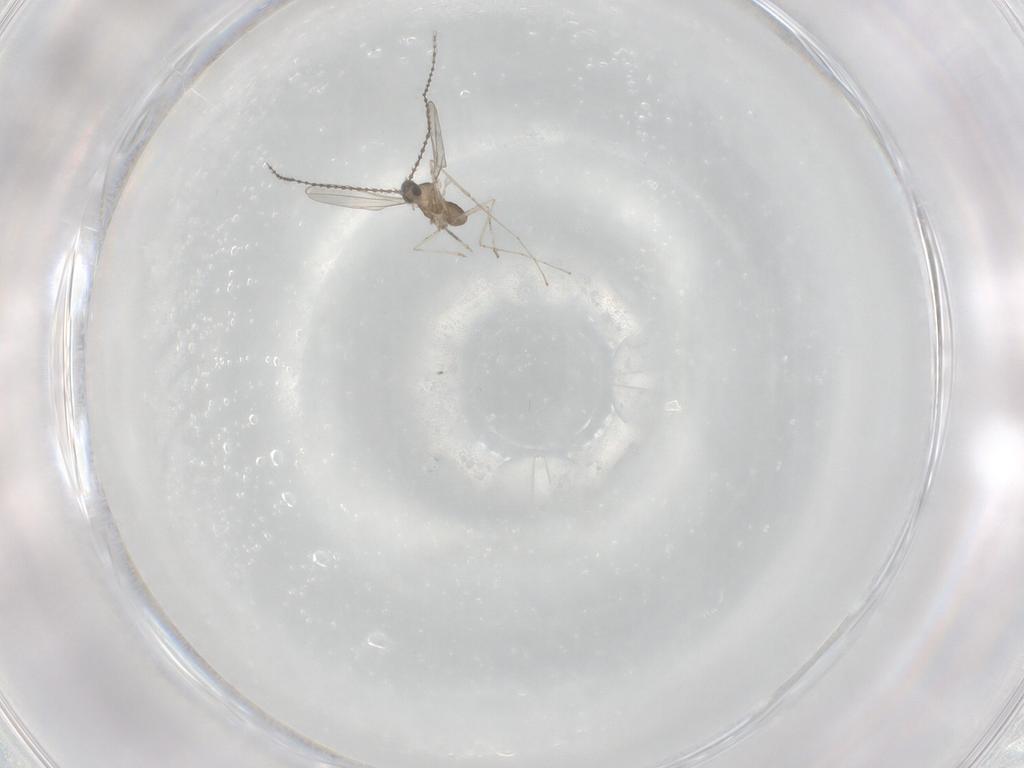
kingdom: Animalia
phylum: Arthropoda
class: Insecta
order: Diptera
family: Cecidomyiidae
